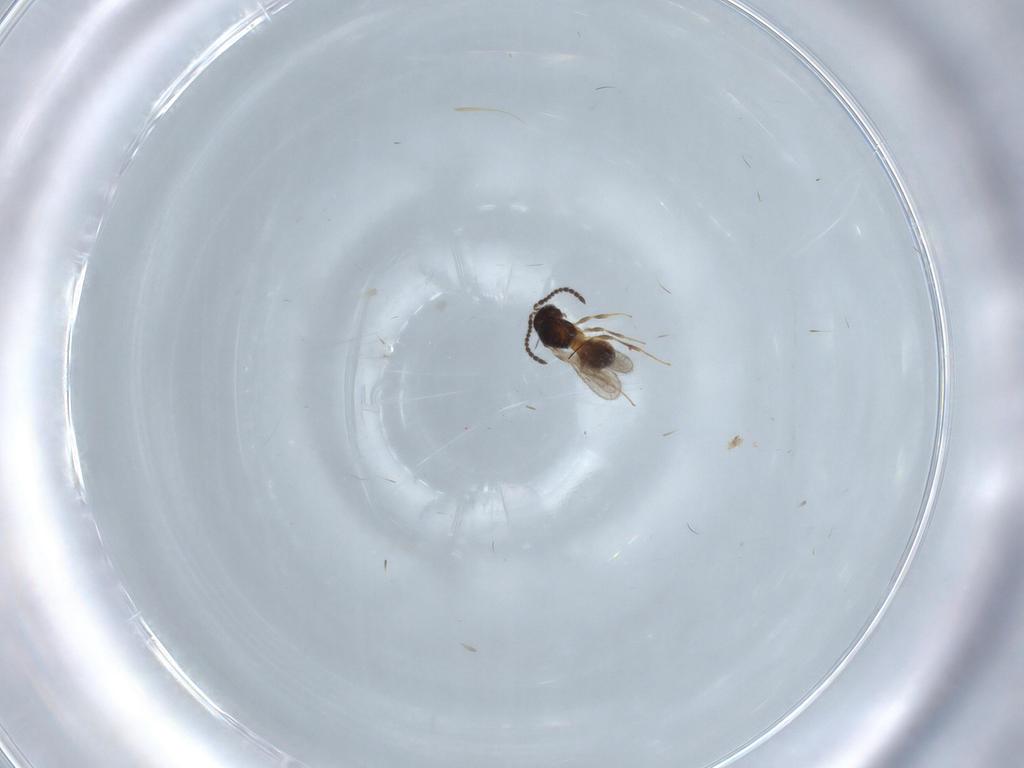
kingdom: Animalia
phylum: Arthropoda
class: Insecta
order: Hymenoptera
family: Scelionidae
